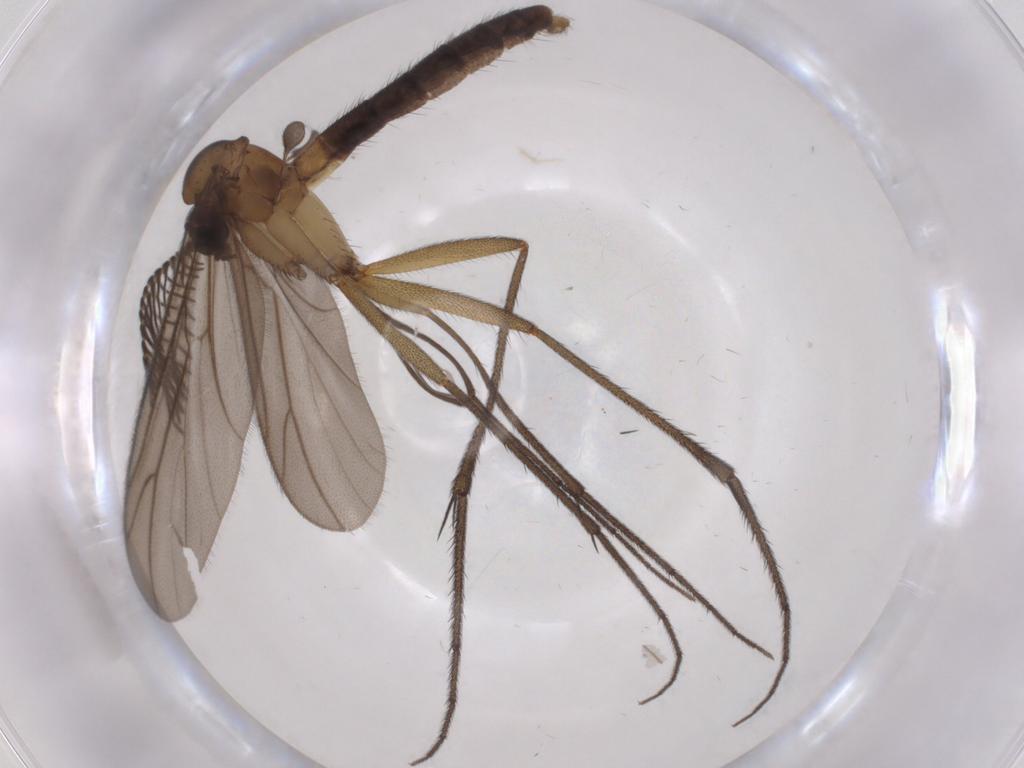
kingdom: Animalia
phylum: Arthropoda
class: Insecta
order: Diptera
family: Ditomyiidae
